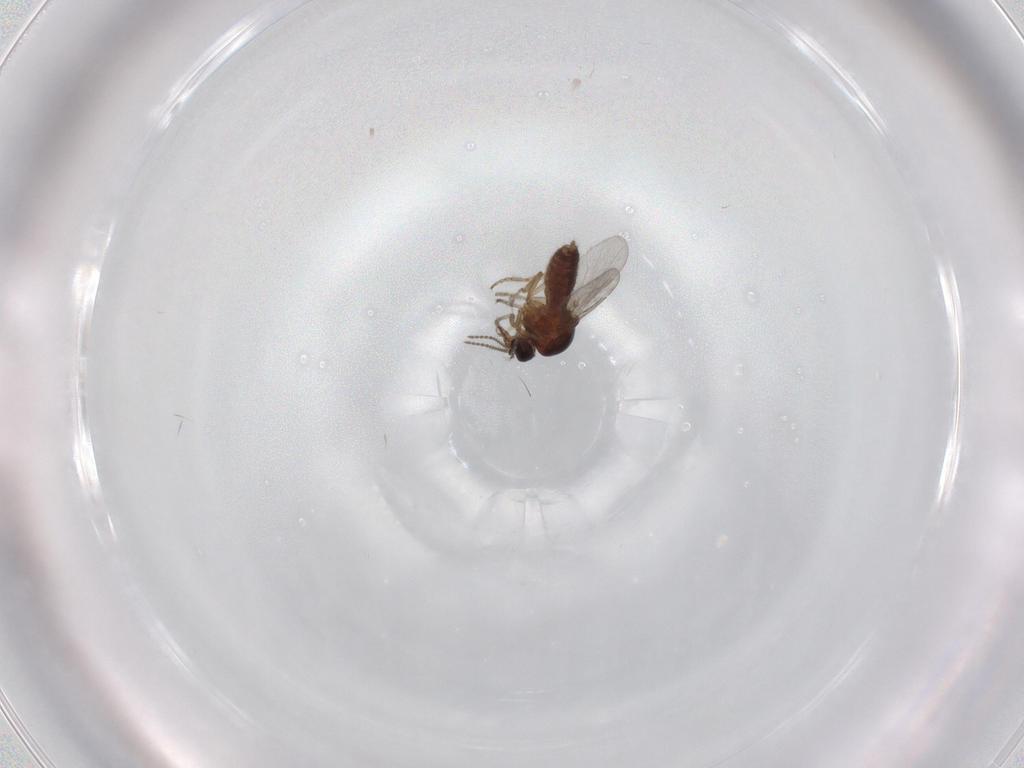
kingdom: Animalia
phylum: Arthropoda
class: Insecta
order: Diptera
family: Ceratopogonidae
